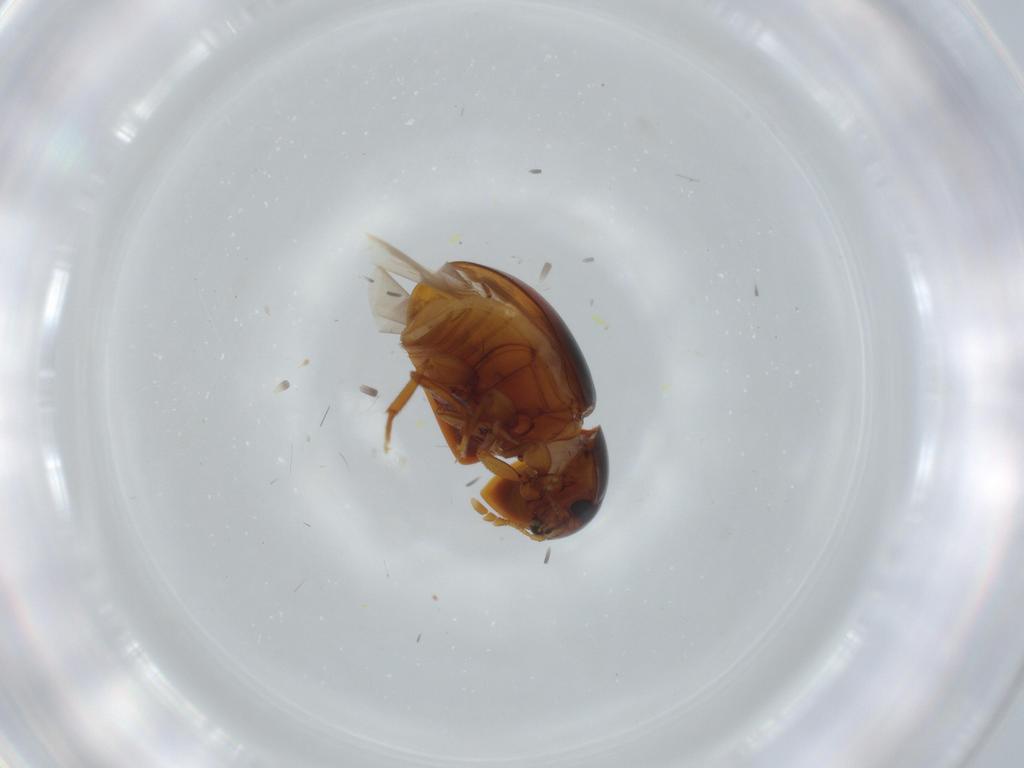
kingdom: Animalia
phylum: Arthropoda
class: Insecta
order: Coleoptera
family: Phalacridae
